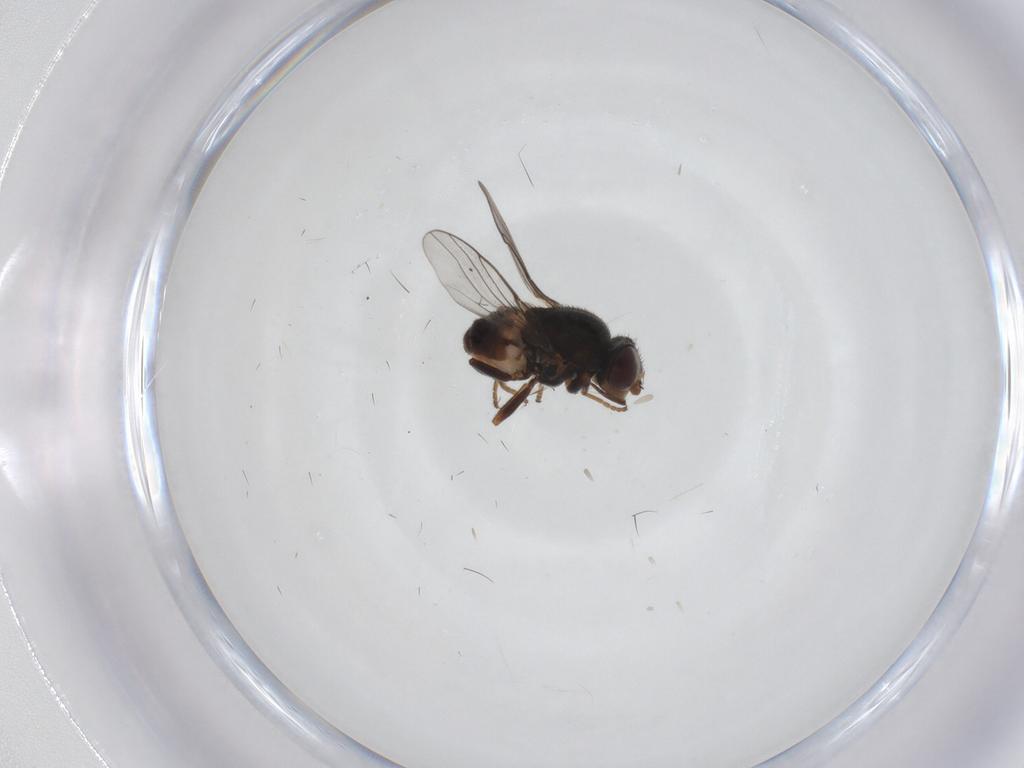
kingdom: Animalia
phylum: Arthropoda
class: Insecta
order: Diptera
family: Chloropidae
